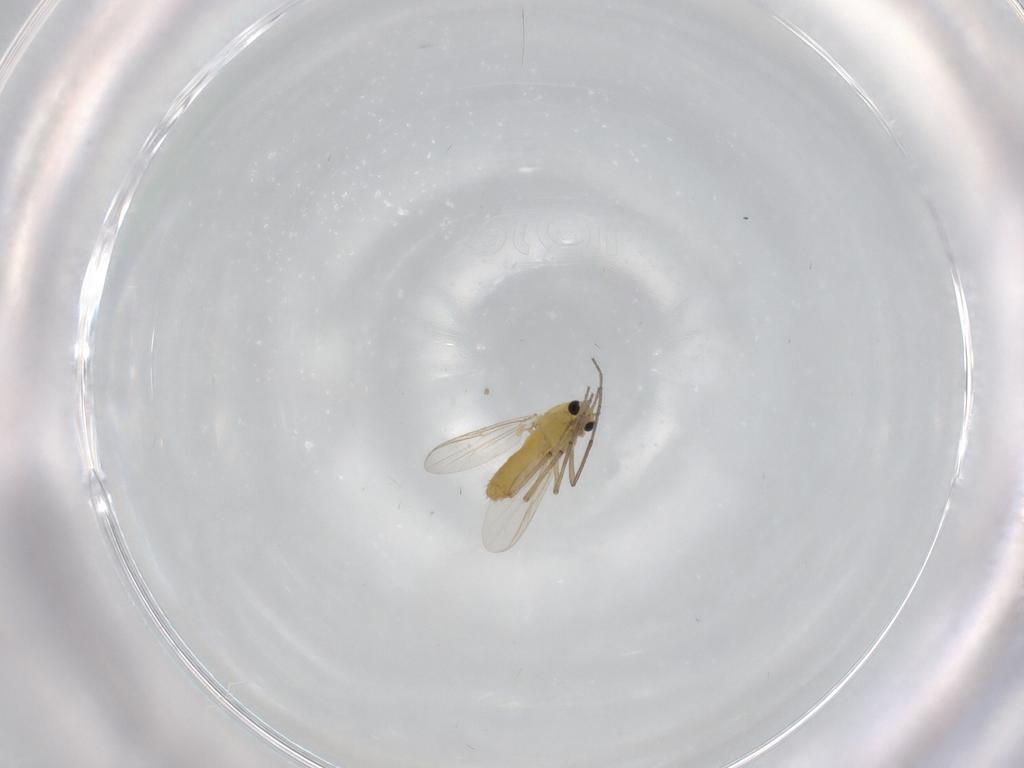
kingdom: Animalia
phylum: Arthropoda
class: Insecta
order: Diptera
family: Chironomidae
